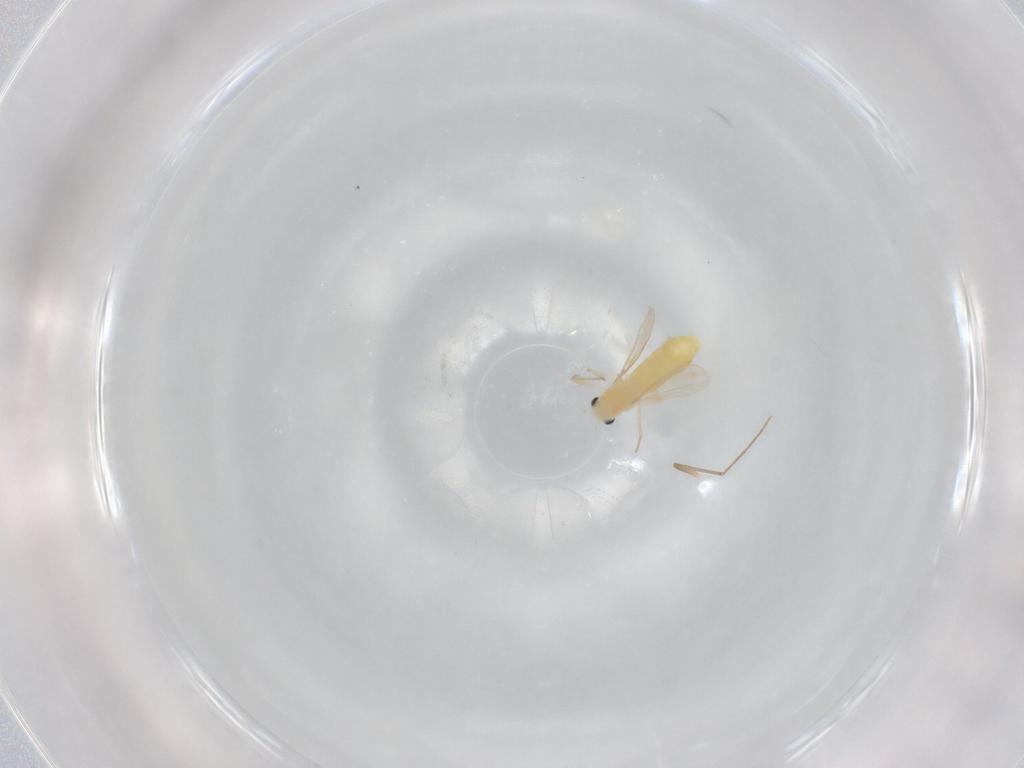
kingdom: Animalia
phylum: Arthropoda
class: Insecta
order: Diptera
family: Chironomidae
